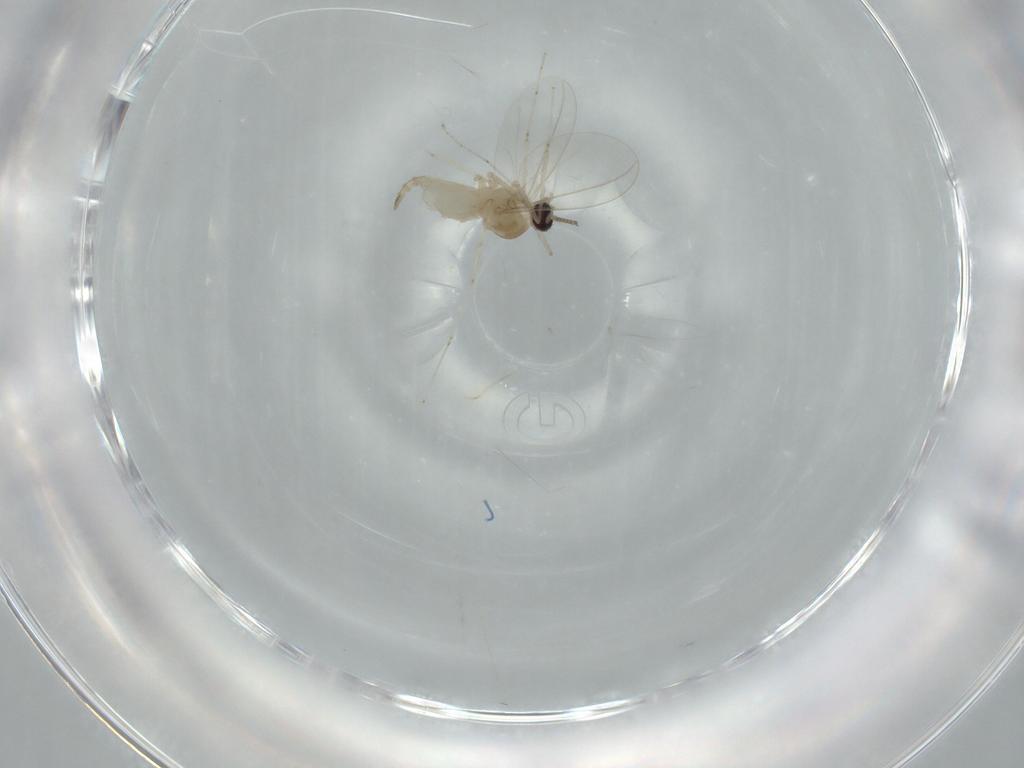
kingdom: Animalia
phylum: Arthropoda
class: Insecta
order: Diptera
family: Cecidomyiidae
